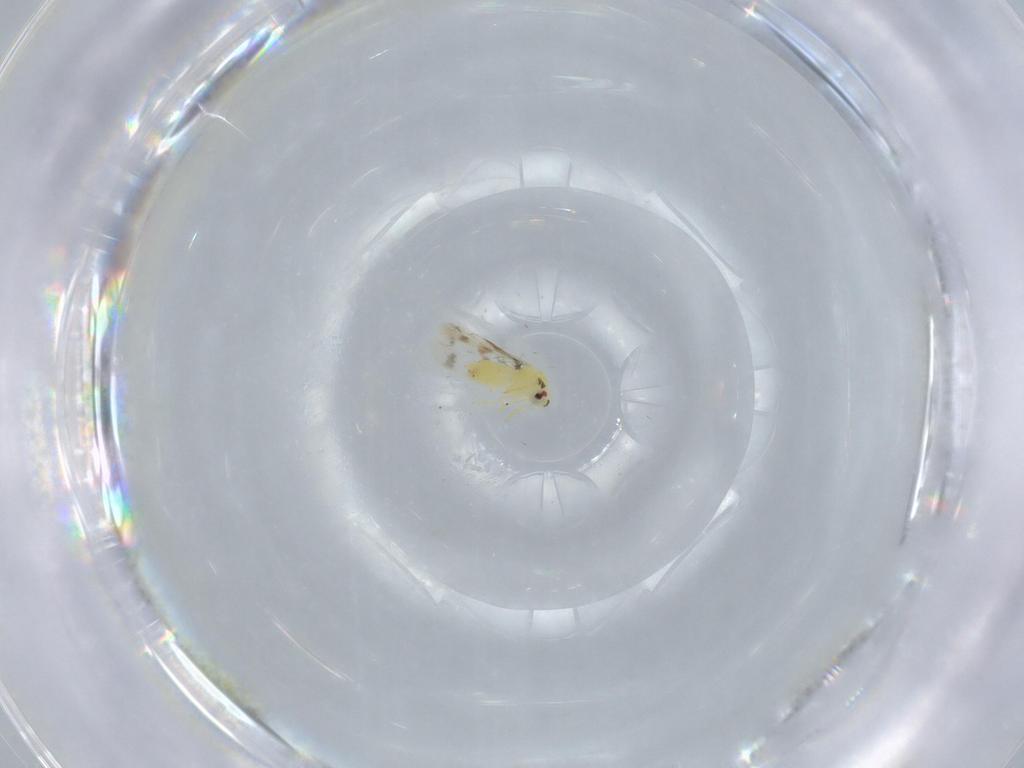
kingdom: Animalia
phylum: Arthropoda
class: Insecta
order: Hemiptera
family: Aleyrodidae
